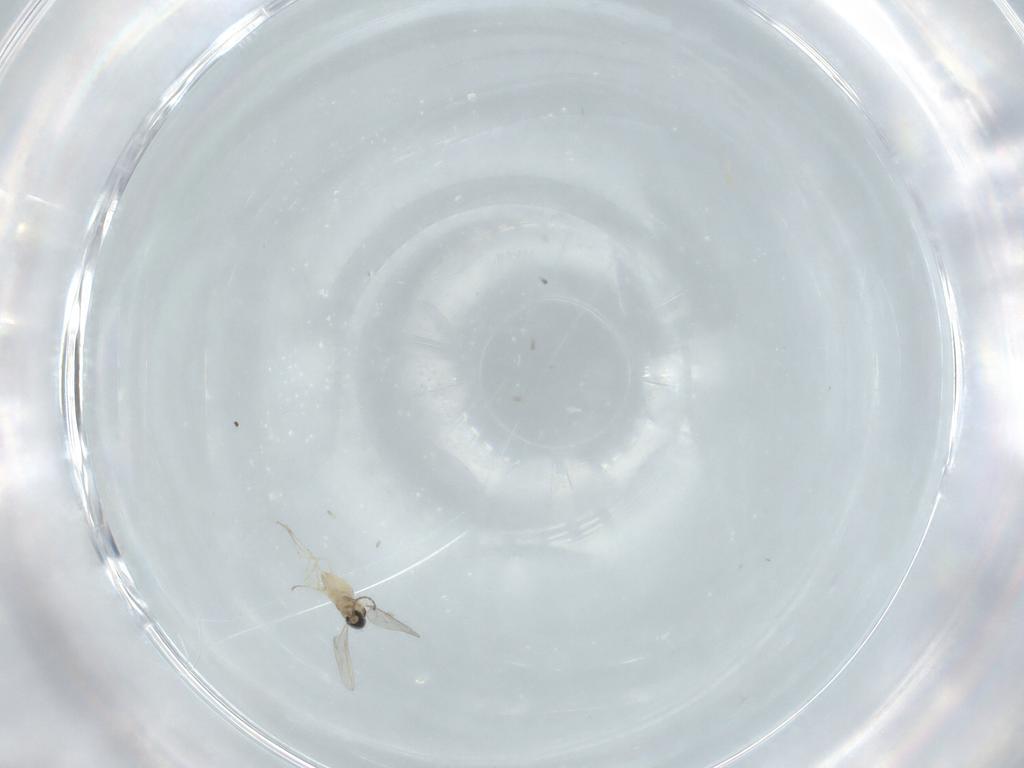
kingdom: Animalia
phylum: Arthropoda
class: Insecta
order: Diptera
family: Cecidomyiidae
